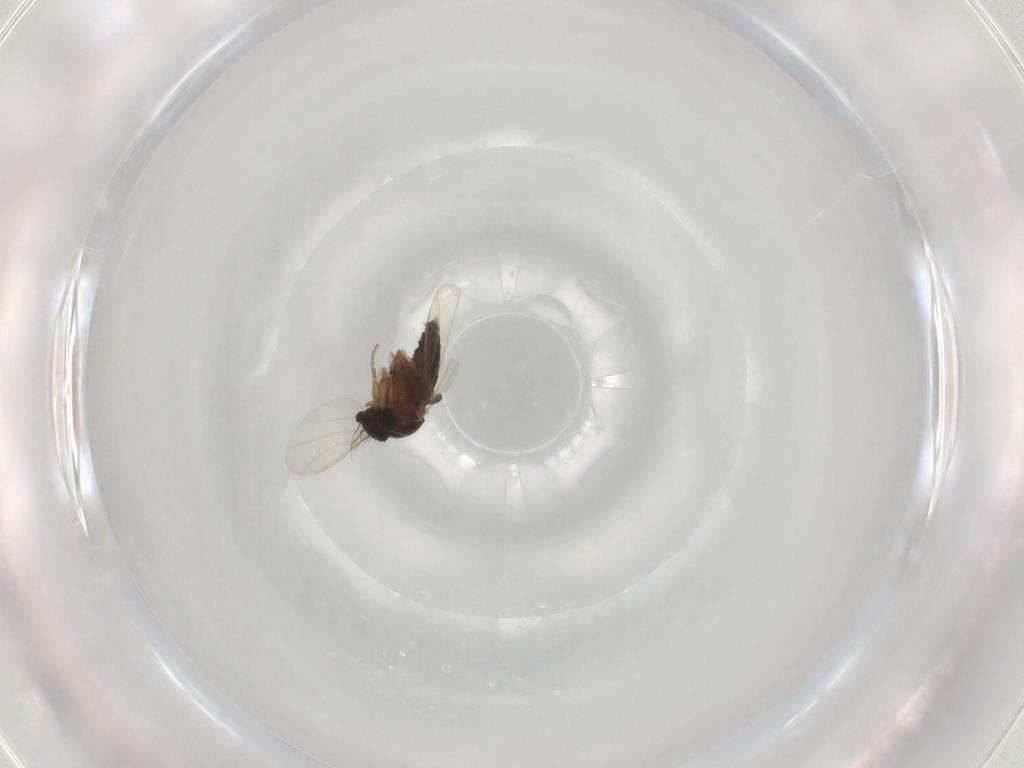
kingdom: Animalia
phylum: Arthropoda
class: Insecta
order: Diptera
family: Phoridae
